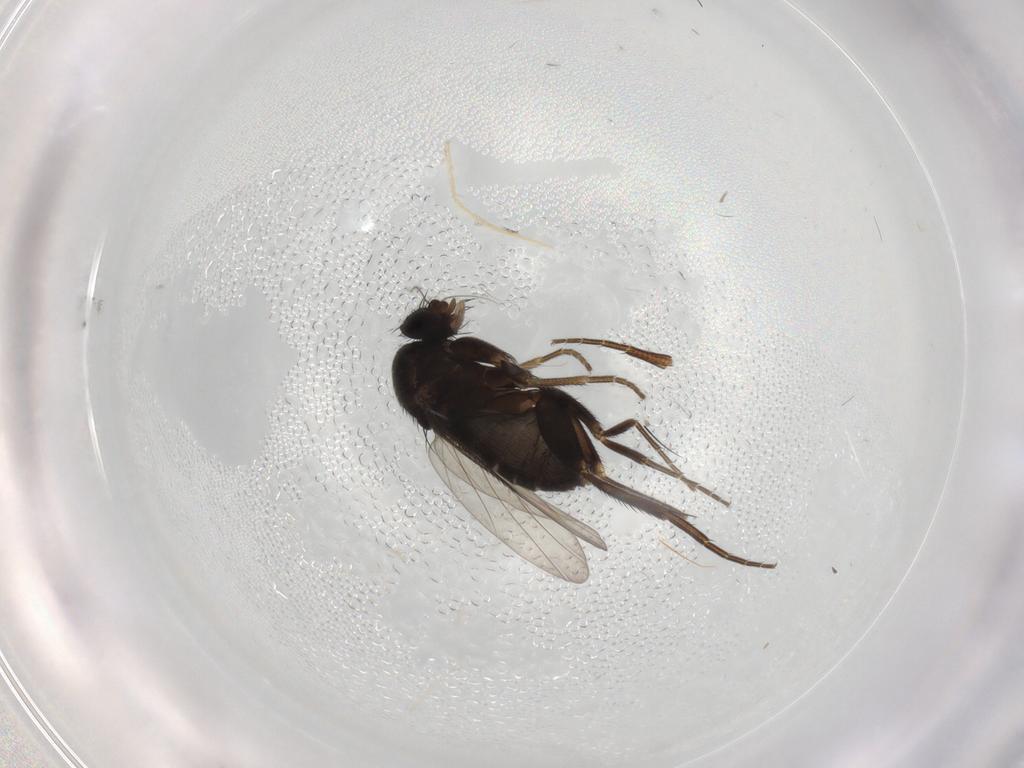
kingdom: Animalia
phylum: Arthropoda
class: Insecta
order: Diptera
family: Phoridae
